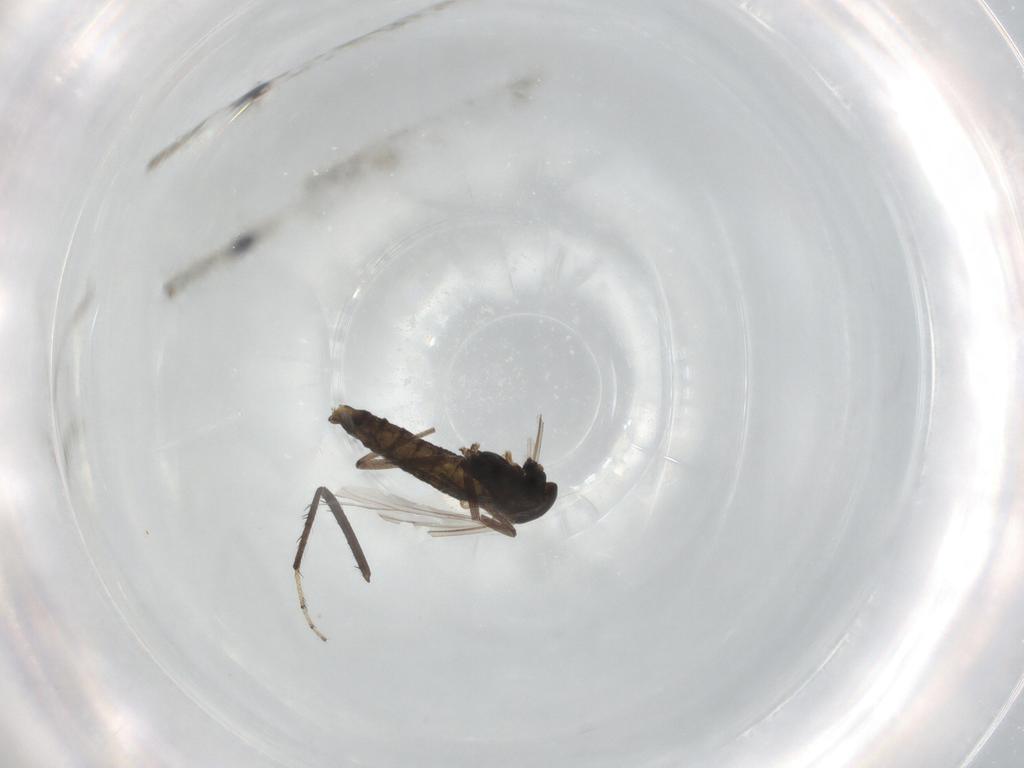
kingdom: Animalia
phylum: Arthropoda
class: Insecta
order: Diptera
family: Chironomidae
